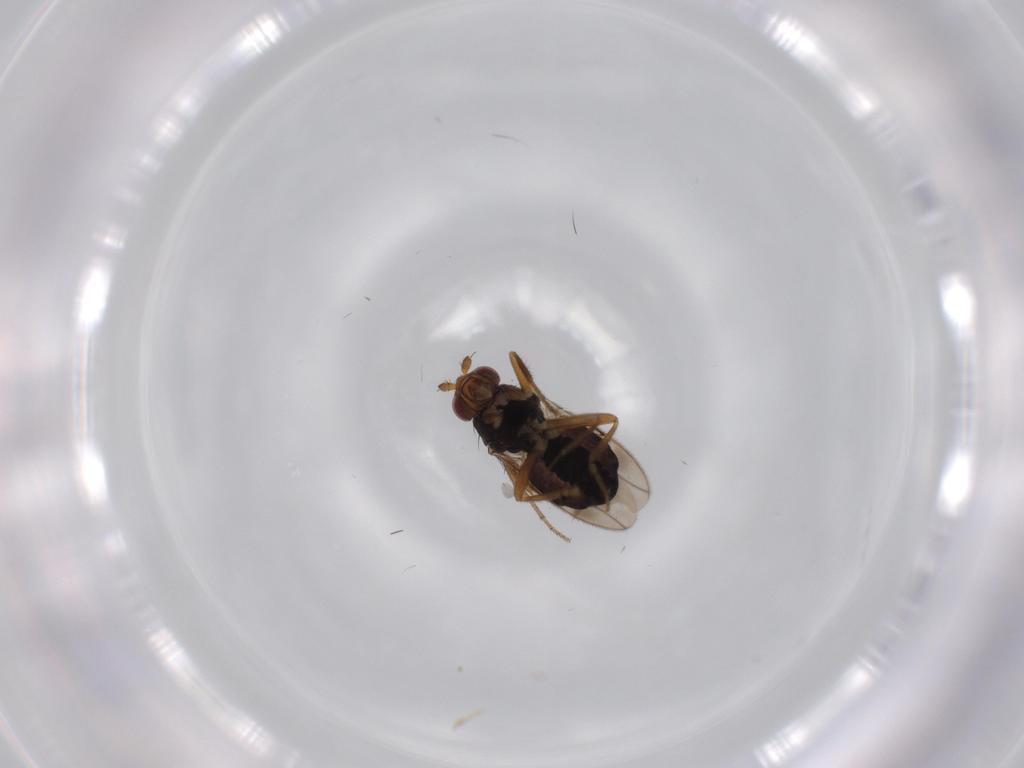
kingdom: Animalia
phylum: Arthropoda
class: Insecta
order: Diptera
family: Sphaeroceridae
